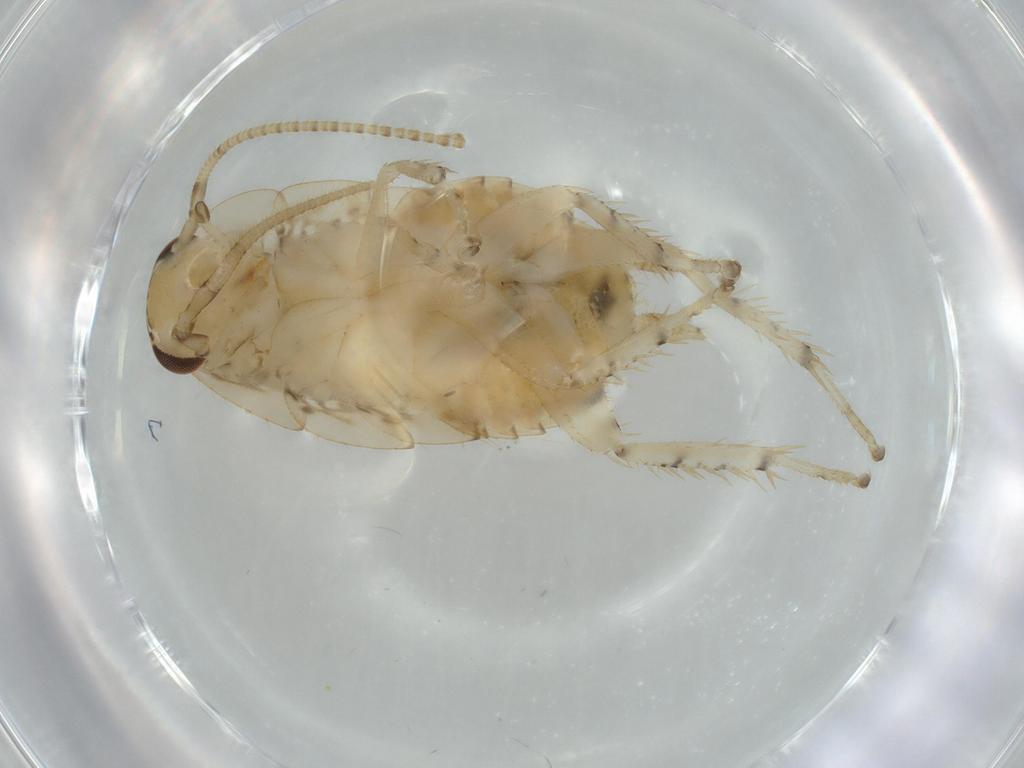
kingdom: Animalia
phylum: Arthropoda
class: Insecta
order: Blattodea
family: Ectobiidae
